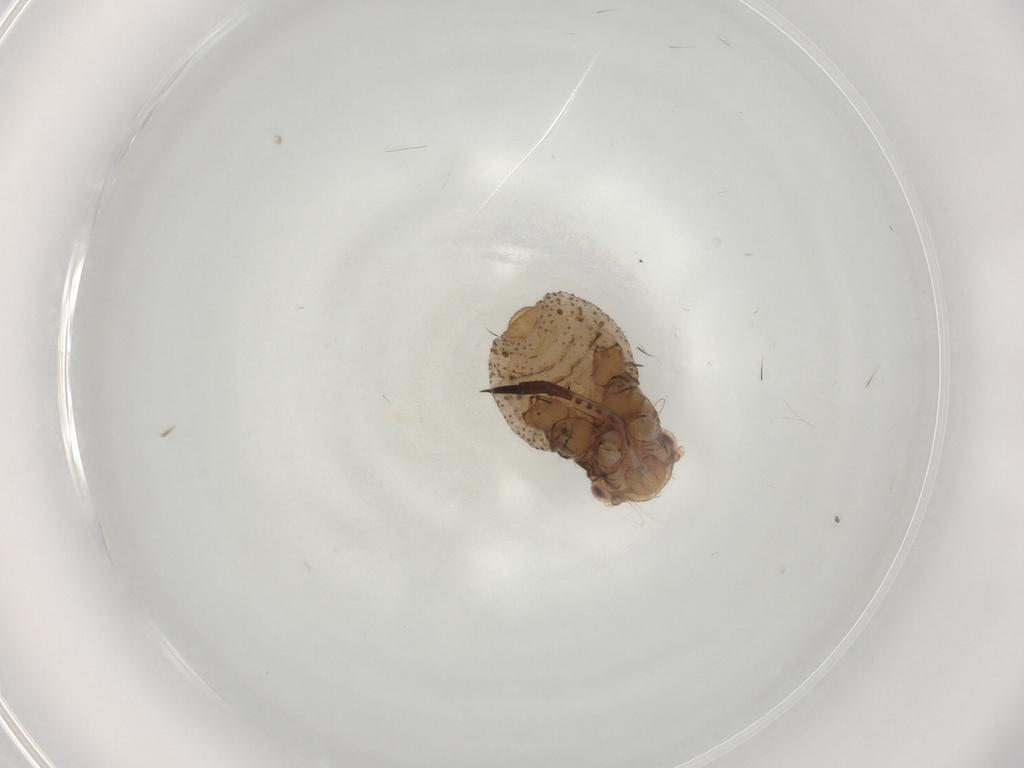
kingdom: Animalia
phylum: Arthropoda
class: Insecta
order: Hemiptera
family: Aphididae
